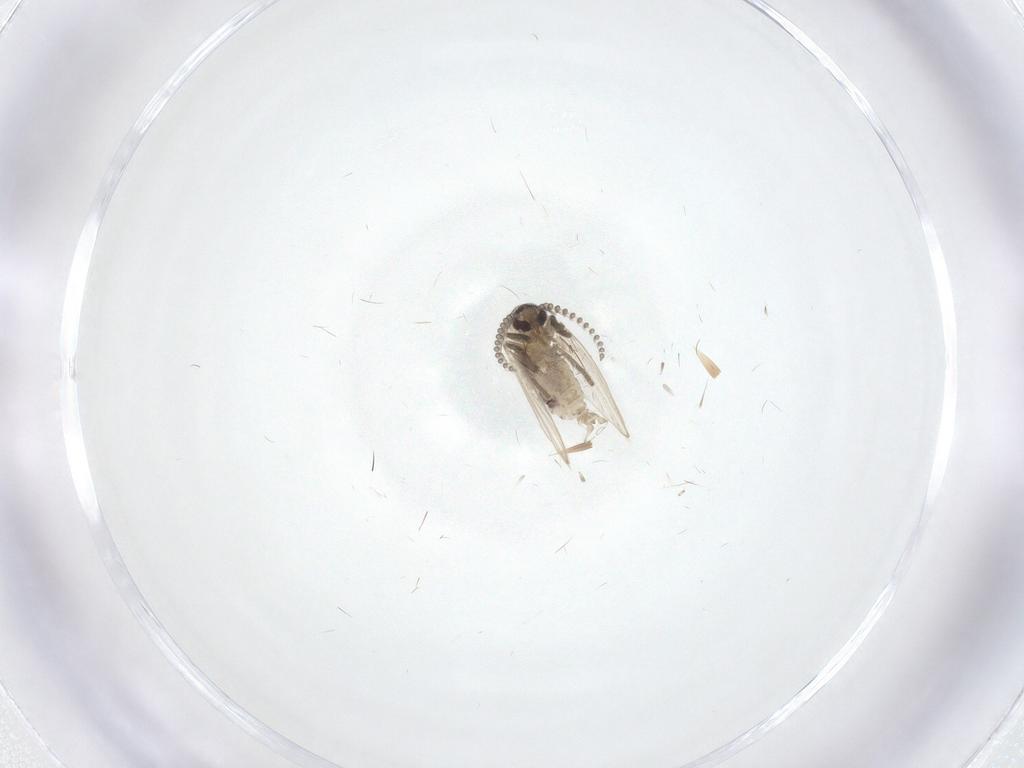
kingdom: Animalia
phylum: Arthropoda
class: Insecta
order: Diptera
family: Psychodidae
